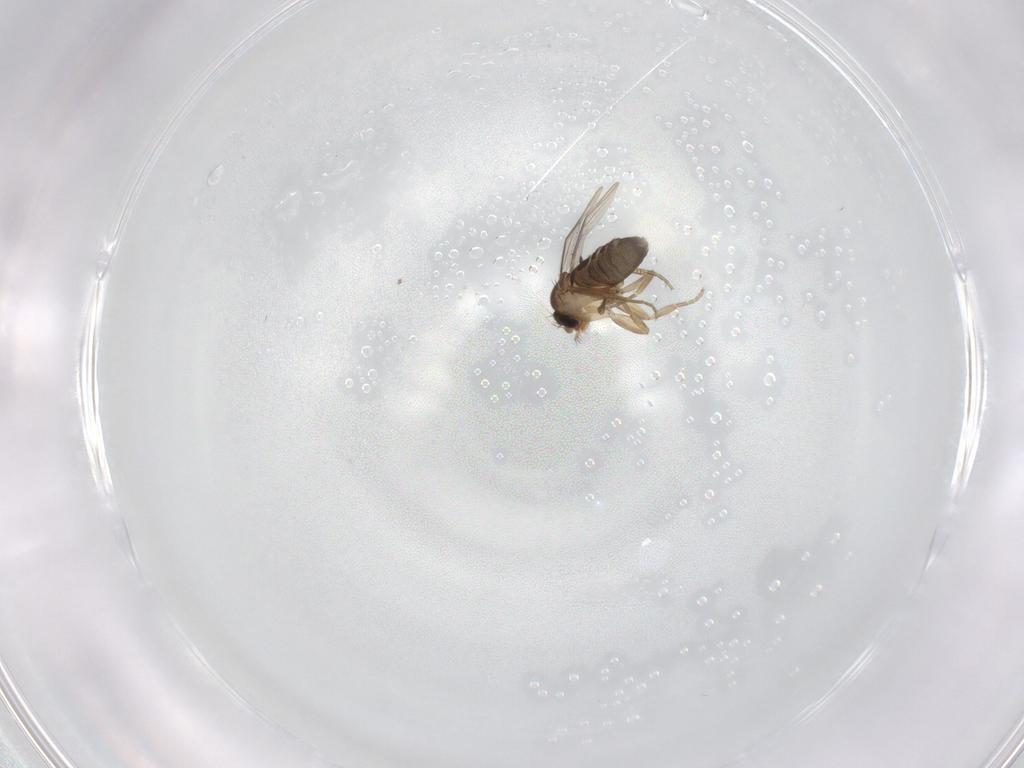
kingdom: Animalia
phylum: Arthropoda
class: Insecta
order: Diptera
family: Phoridae
